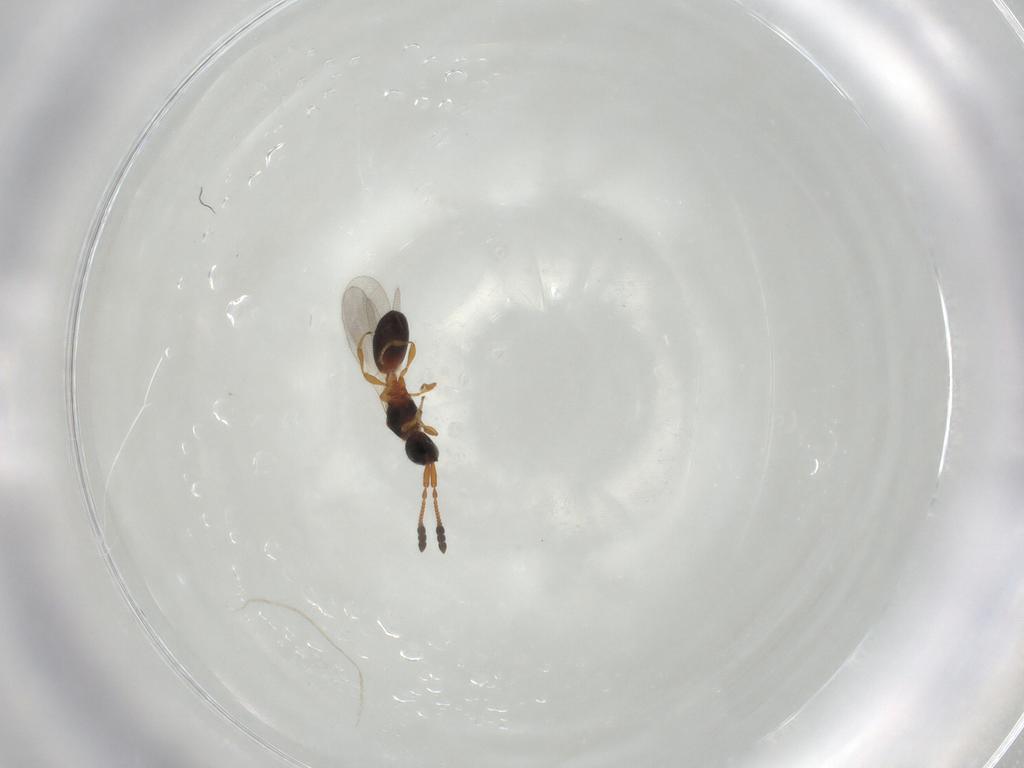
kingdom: Animalia
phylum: Arthropoda
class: Insecta
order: Hymenoptera
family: Diapriidae
